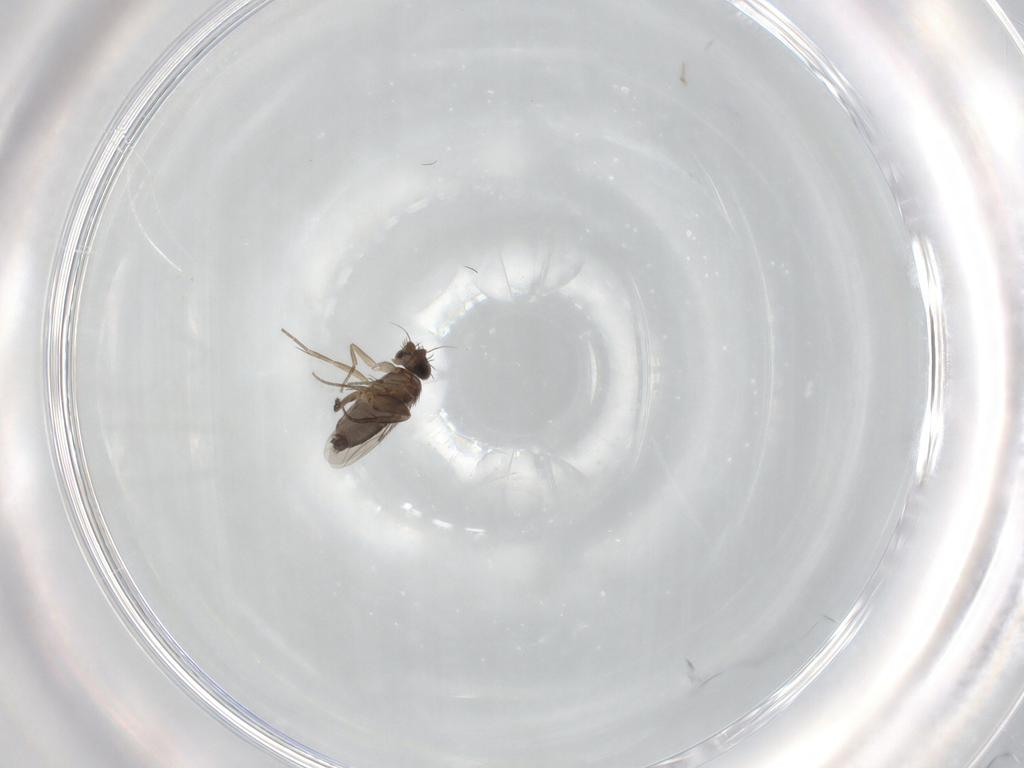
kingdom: Animalia
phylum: Arthropoda
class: Insecta
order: Diptera
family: Phoridae
